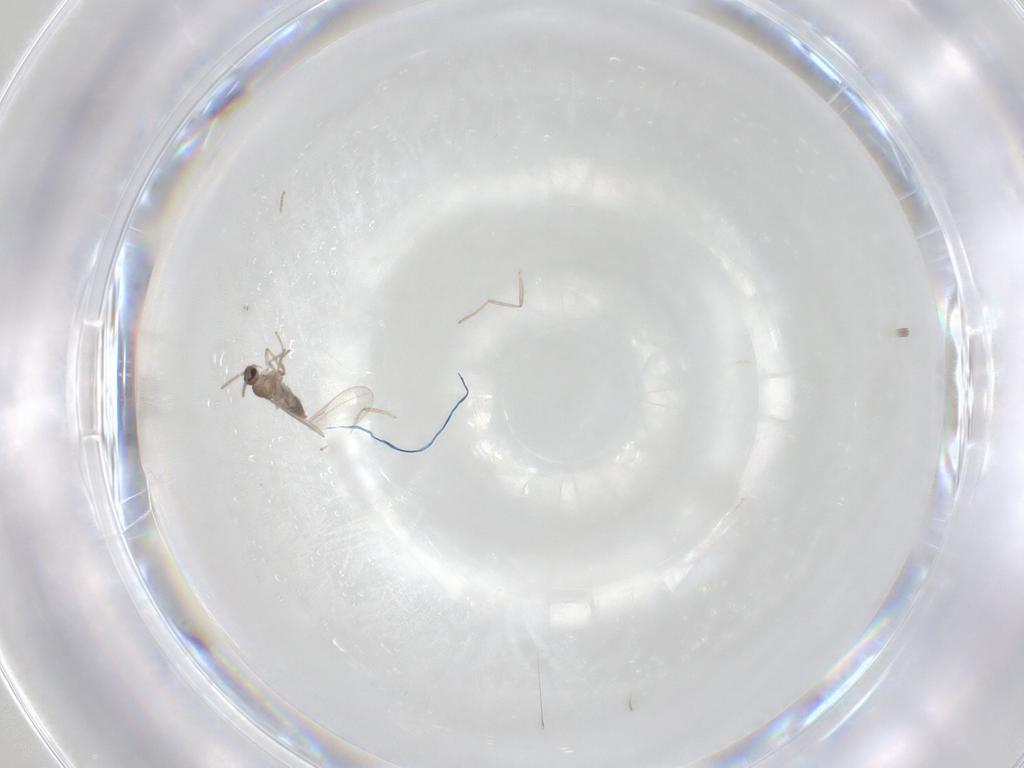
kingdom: Animalia
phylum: Arthropoda
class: Insecta
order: Diptera
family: Cecidomyiidae
